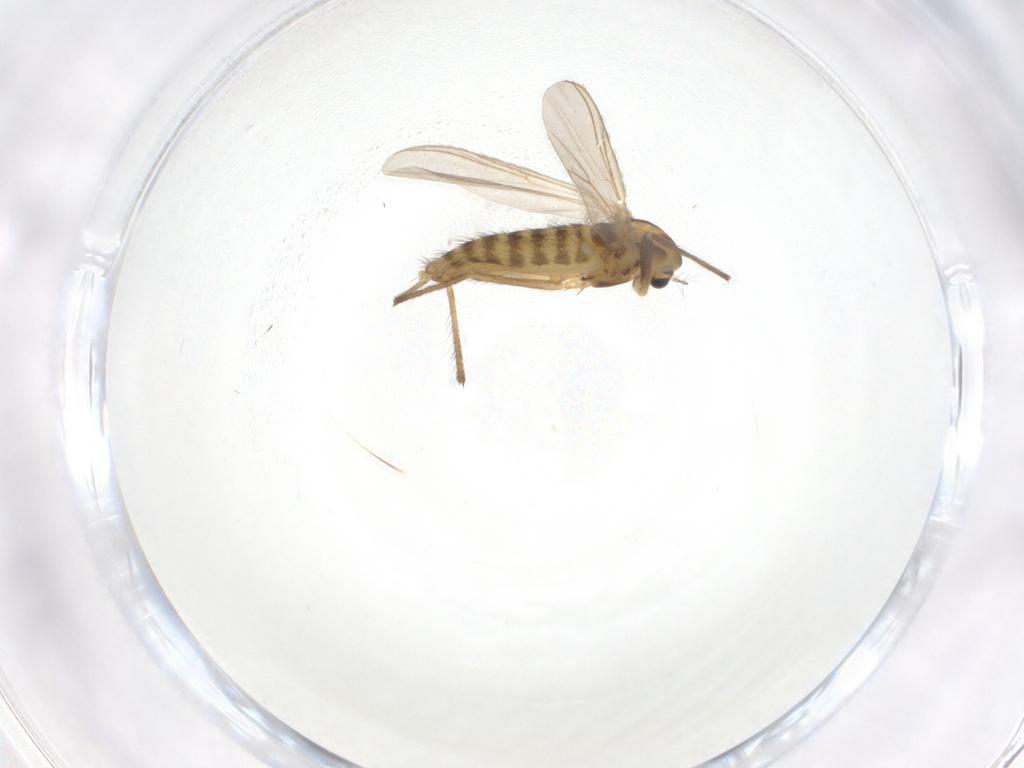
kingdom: Animalia
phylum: Arthropoda
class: Insecta
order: Diptera
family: Chironomidae
